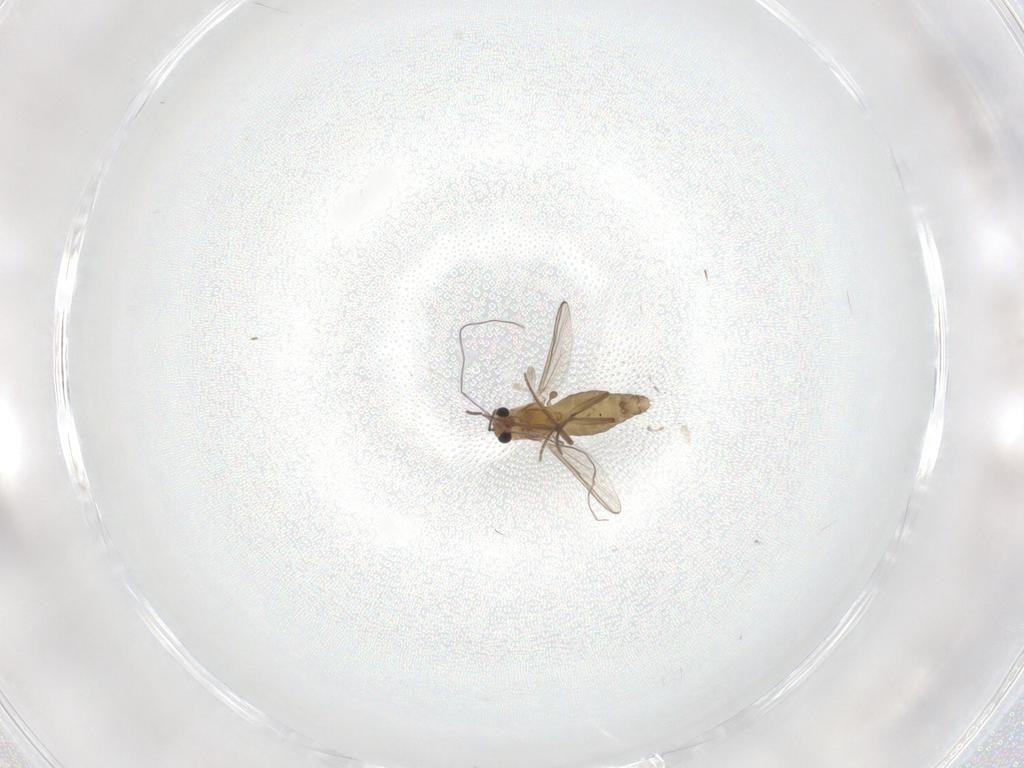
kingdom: Animalia
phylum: Arthropoda
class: Insecta
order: Diptera
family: Chironomidae
